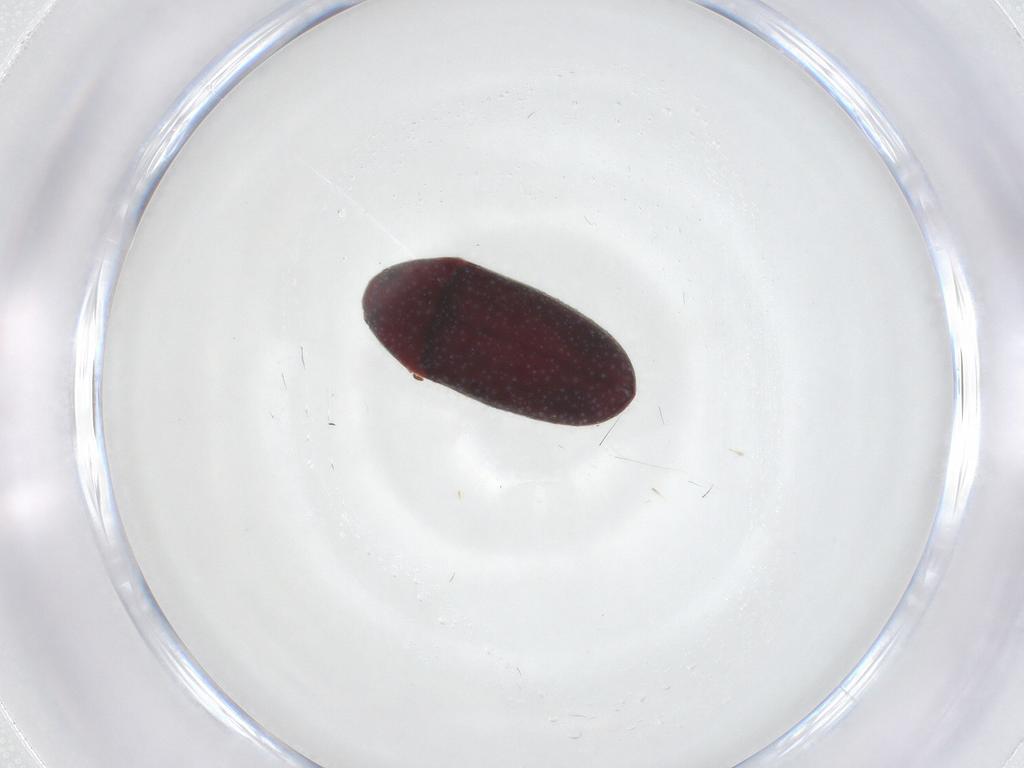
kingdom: Animalia
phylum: Arthropoda
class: Insecta
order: Coleoptera
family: Throscidae
